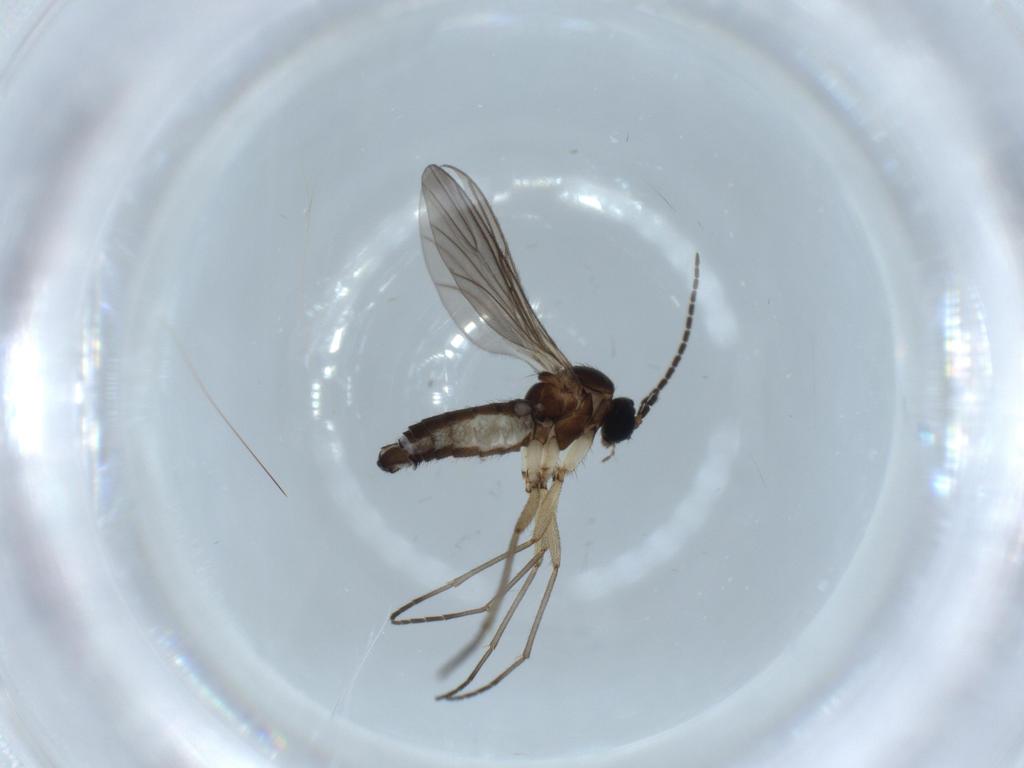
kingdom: Animalia
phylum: Arthropoda
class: Insecta
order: Diptera
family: Sciaridae
